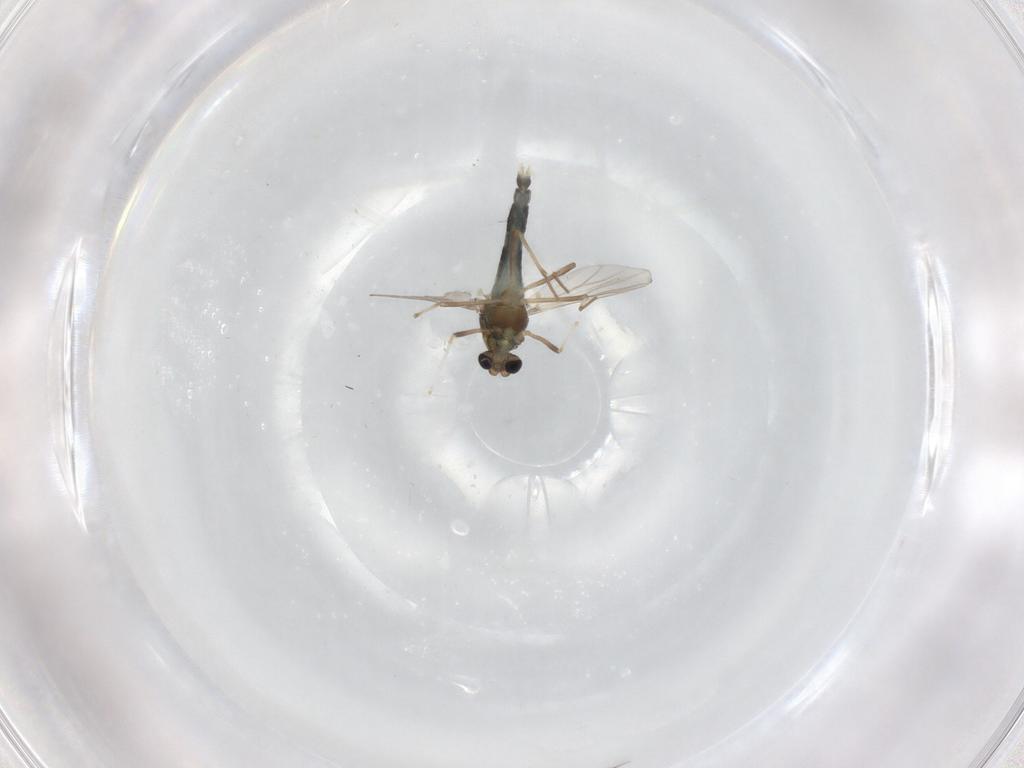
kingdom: Animalia
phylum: Arthropoda
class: Insecta
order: Diptera
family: Chironomidae
